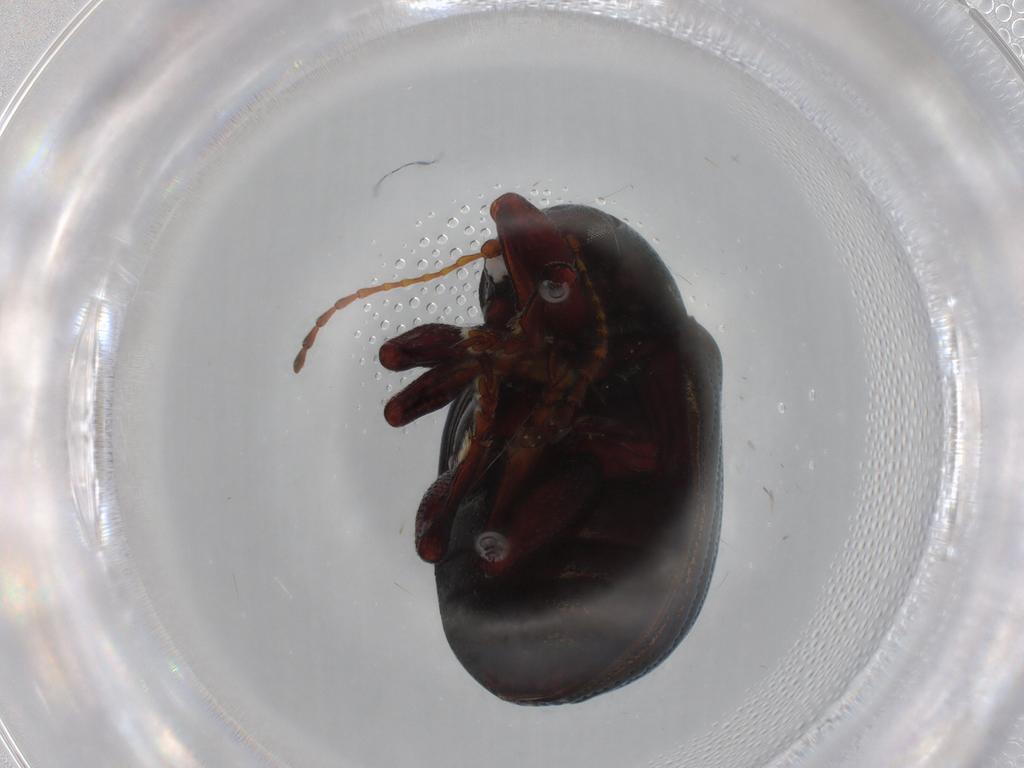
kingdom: Animalia
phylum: Arthropoda
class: Insecta
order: Coleoptera
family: Chrysomelidae
